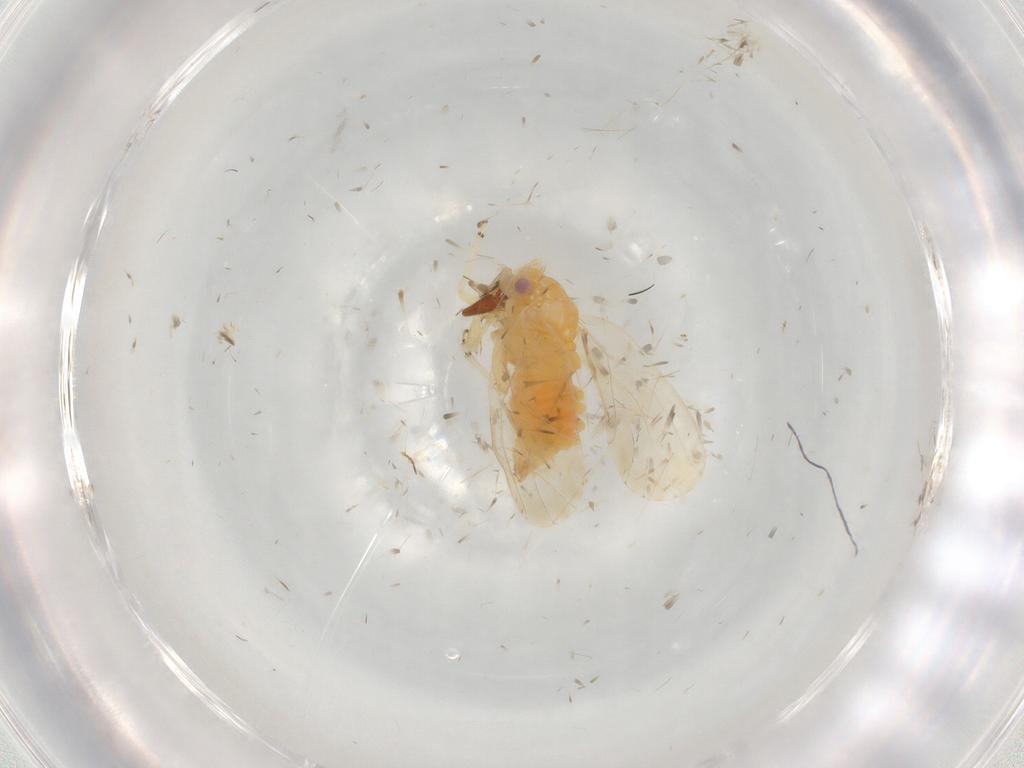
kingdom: Animalia
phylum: Arthropoda
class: Insecta
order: Hemiptera
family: Psyllidae
